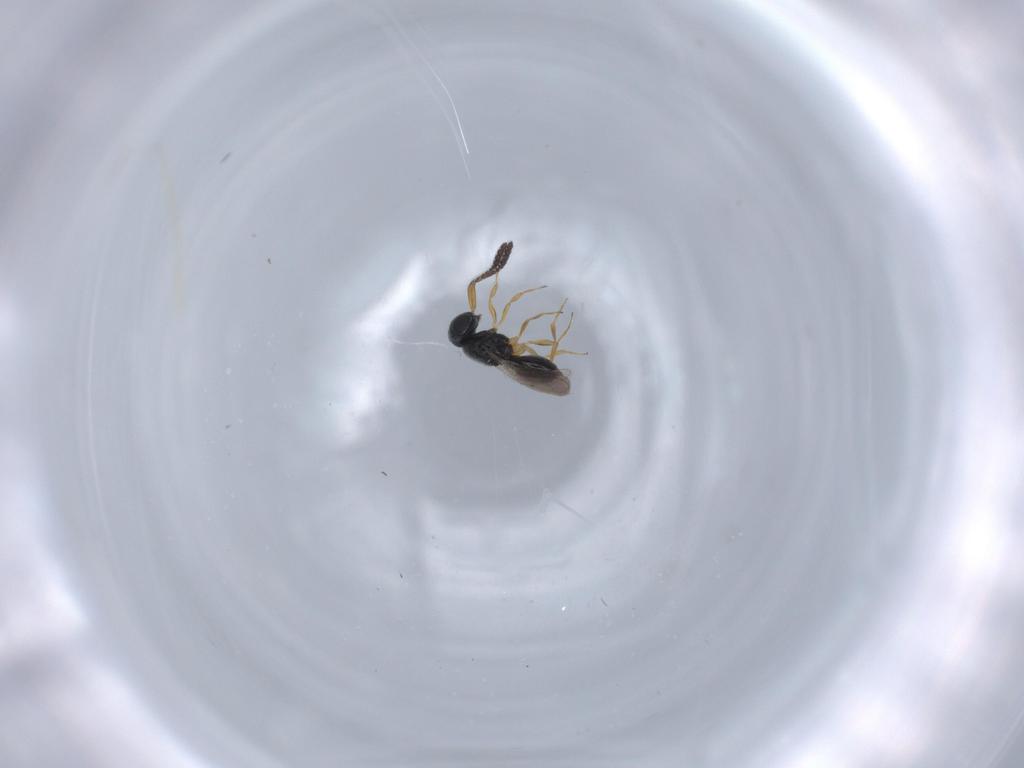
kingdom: Animalia
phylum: Arthropoda
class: Insecta
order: Hymenoptera
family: Scelionidae
